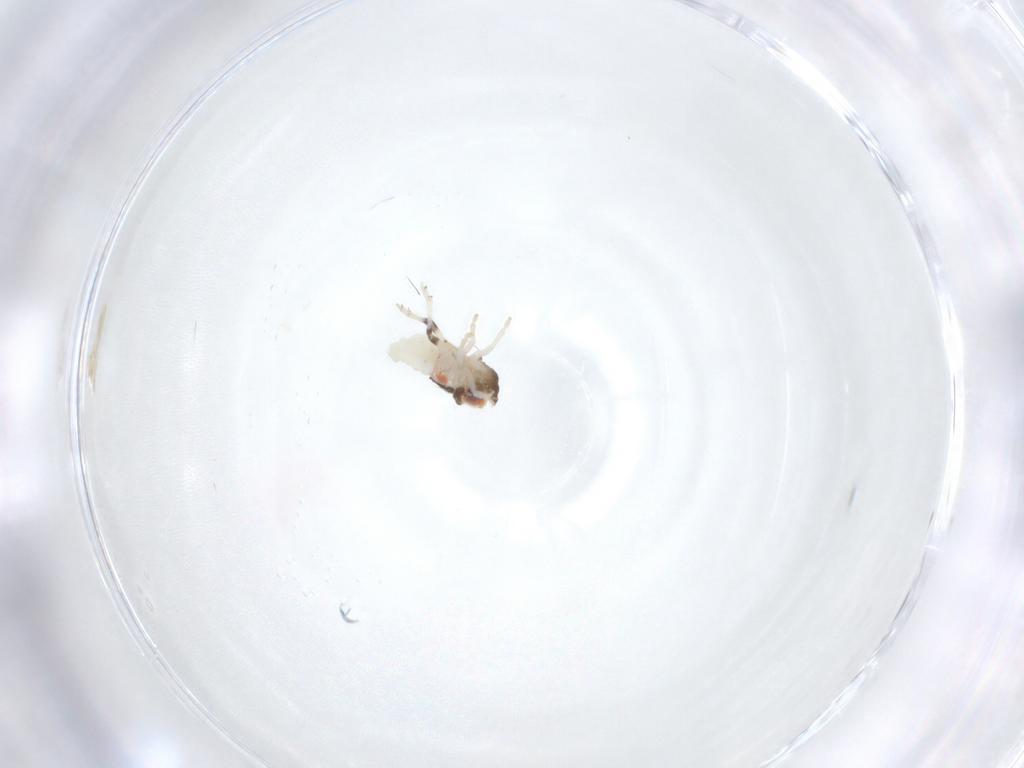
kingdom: Animalia
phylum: Arthropoda
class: Insecta
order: Hemiptera
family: Nogodinidae
